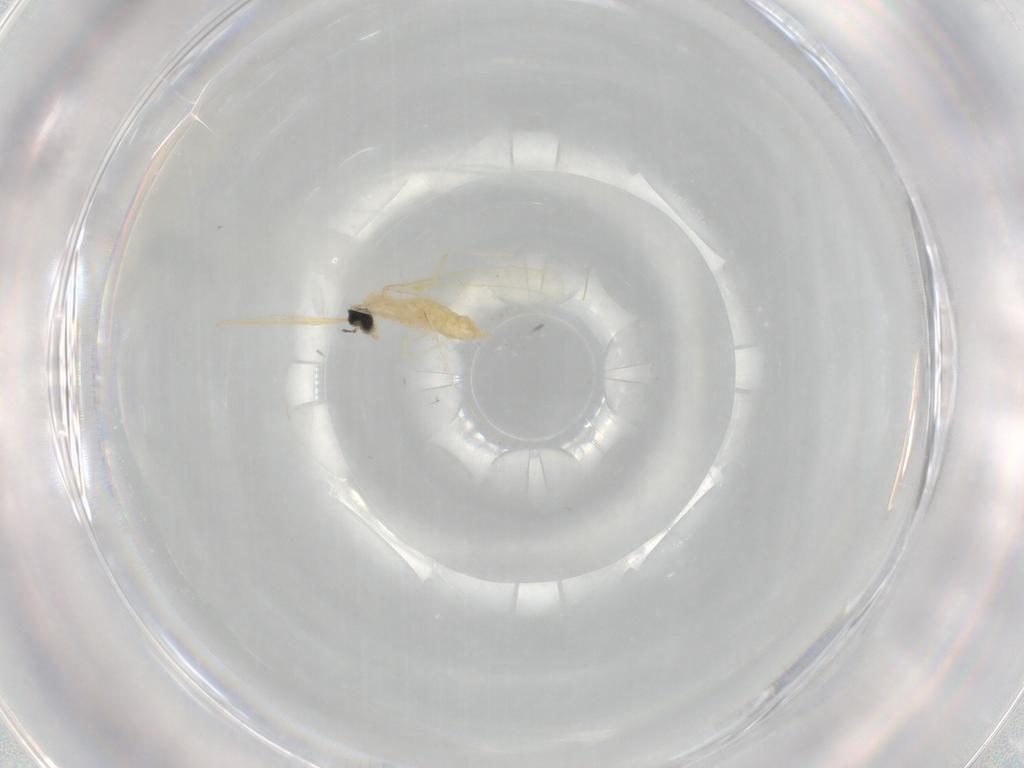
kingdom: Animalia
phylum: Arthropoda
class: Insecta
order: Diptera
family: Cecidomyiidae
